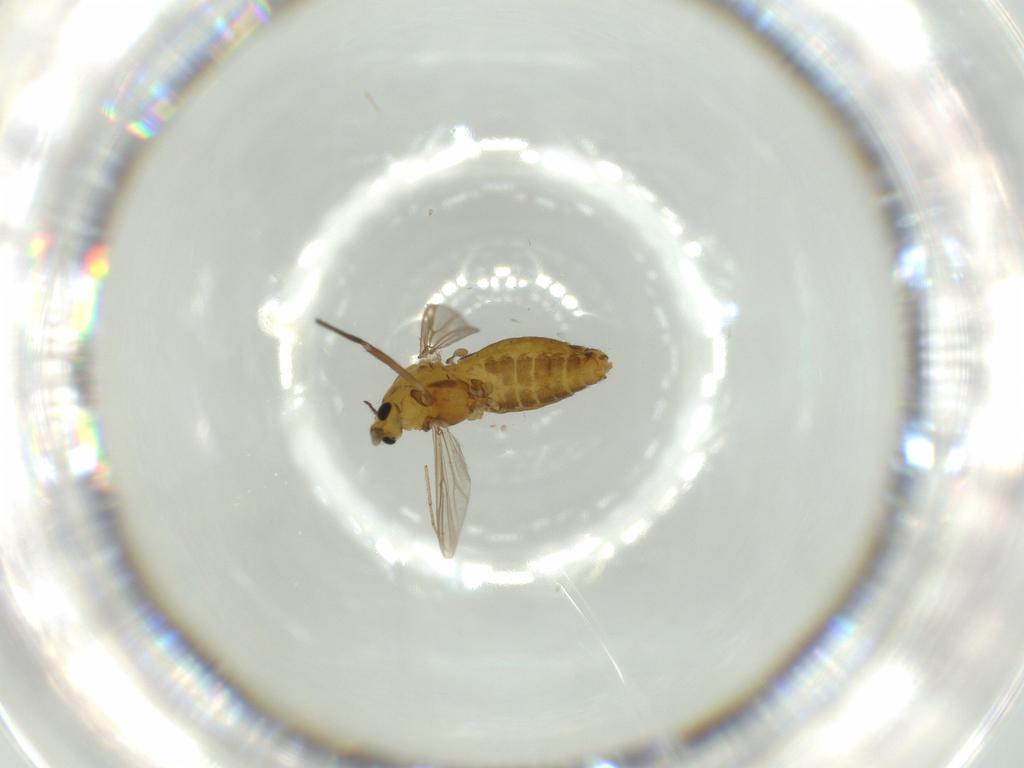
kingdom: Animalia
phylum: Arthropoda
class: Insecta
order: Diptera
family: Chironomidae
